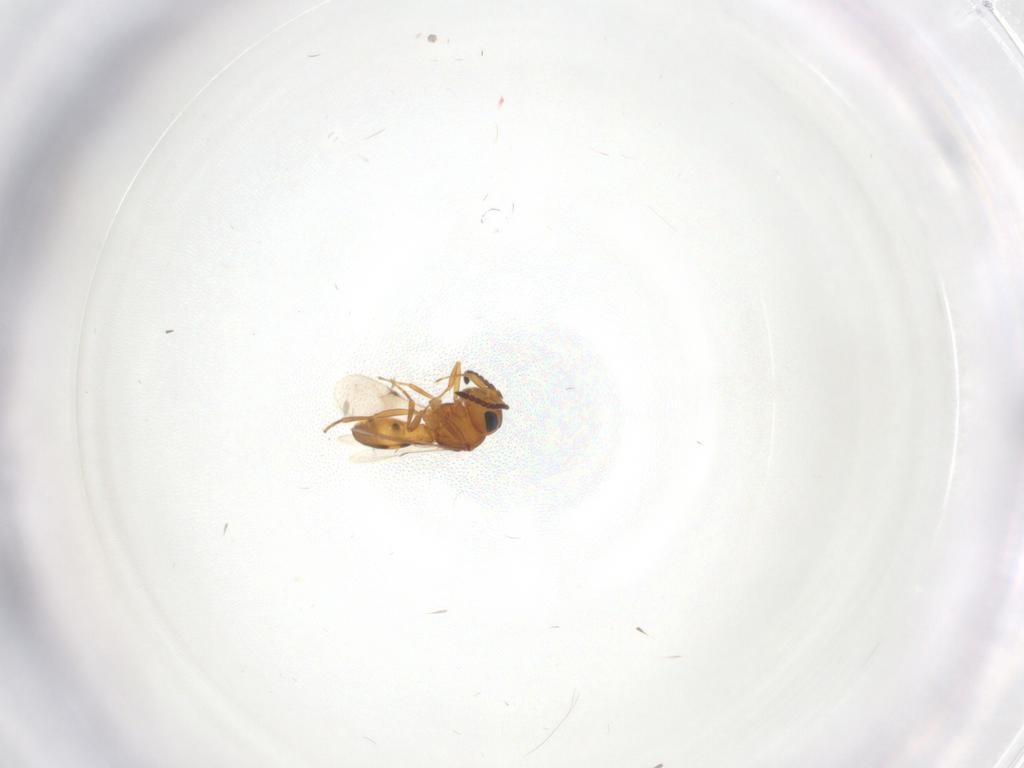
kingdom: Animalia
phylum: Arthropoda
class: Insecta
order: Hymenoptera
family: Scelionidae
